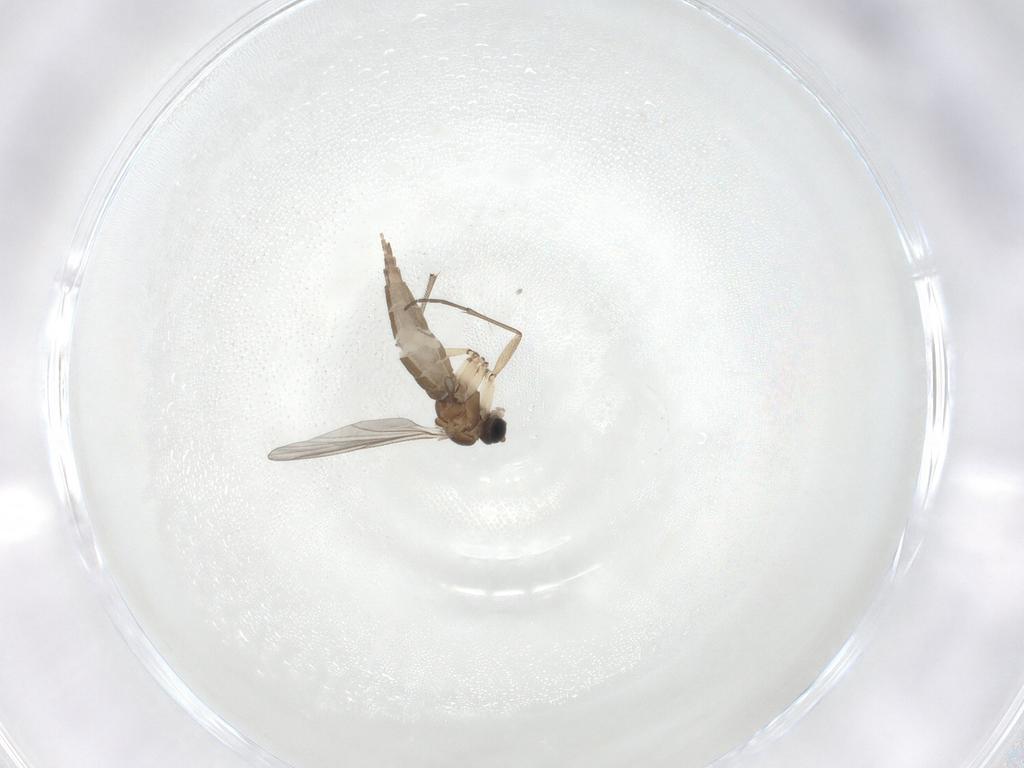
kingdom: Animalia
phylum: Arthropoda
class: Insecta
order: Diptera
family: Sciaridae
